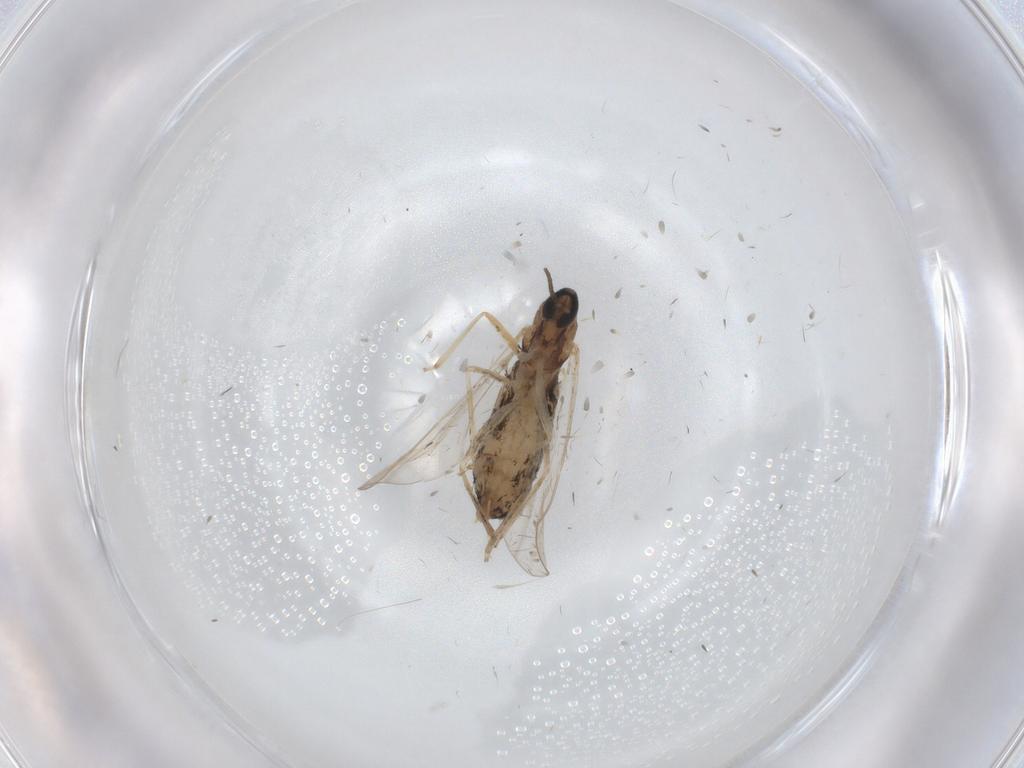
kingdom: Animalia
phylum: Arthropoda
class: Insecta
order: Diptera
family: Cecidomyiidae
